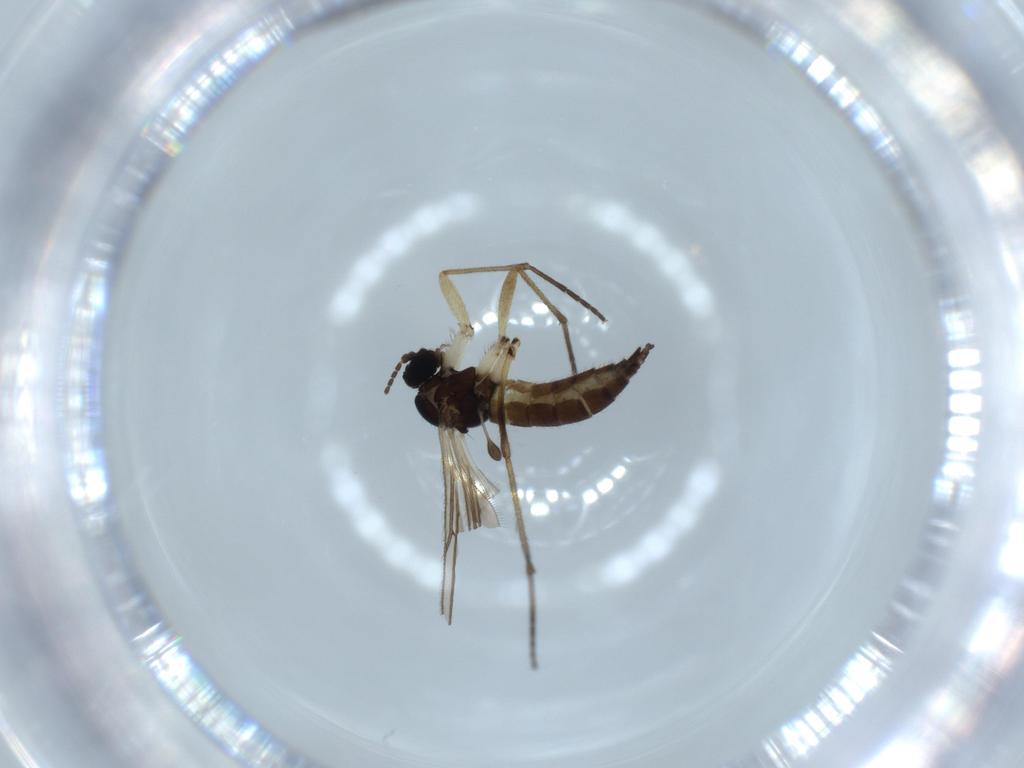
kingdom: Animalia
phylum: Arthropoda
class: Insecta
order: Diptera
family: Sciaridae
